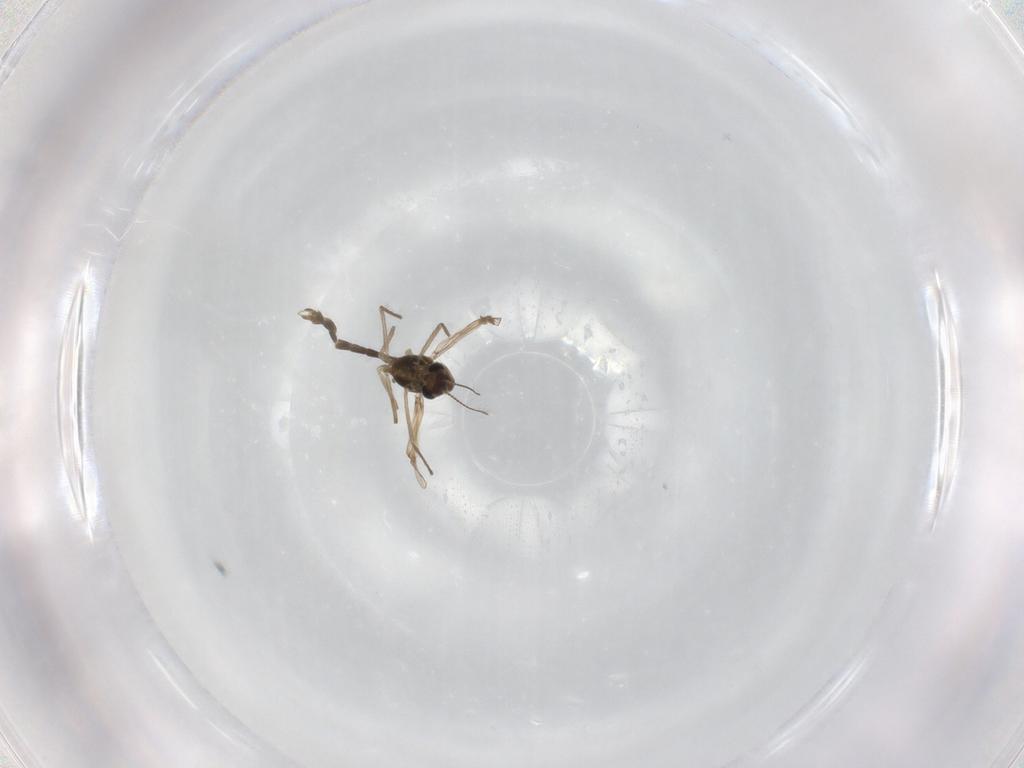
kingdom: Animalia
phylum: Arthropoda
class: Insecta
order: Diptera
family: Chironomidae
